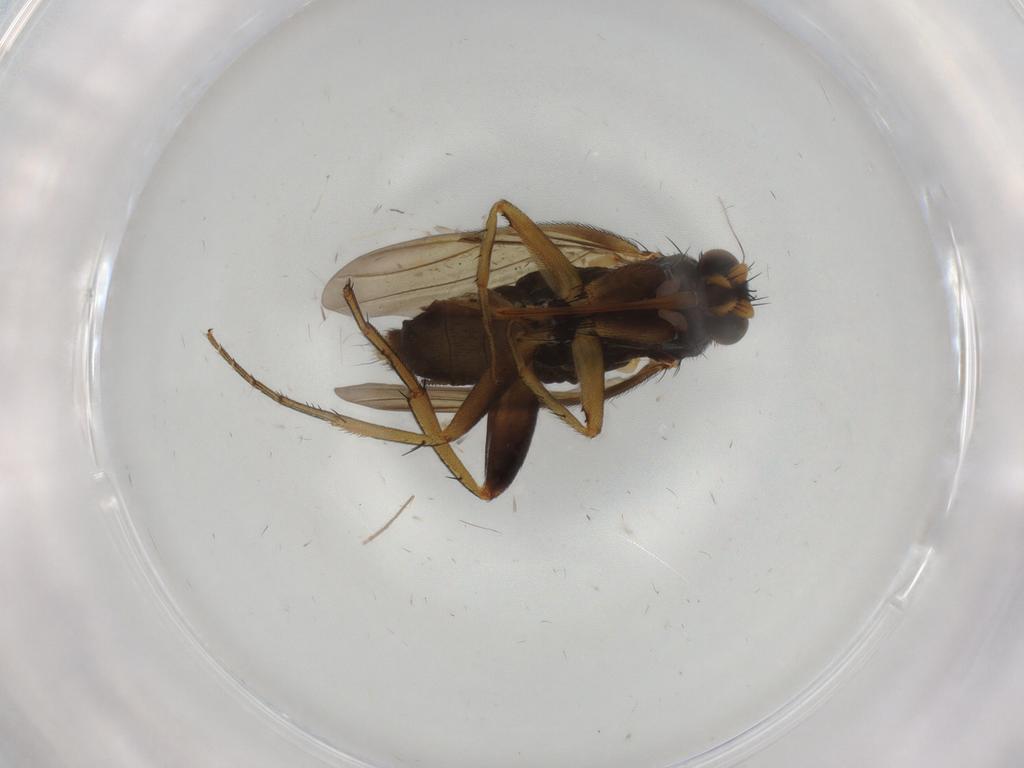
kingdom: Animalia
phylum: Arthropoda
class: Insecta
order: Diptera
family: Phoridae
